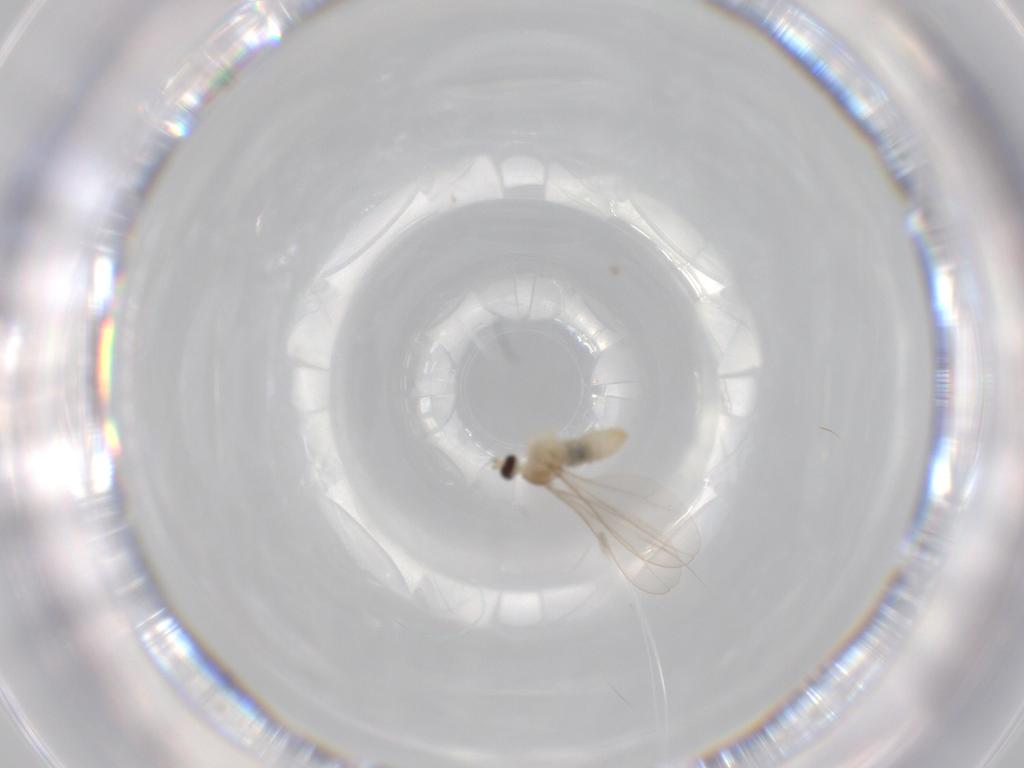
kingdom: Animalia
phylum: Arthropoda
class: Insecta
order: Diptera
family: Cecidomyiidae
